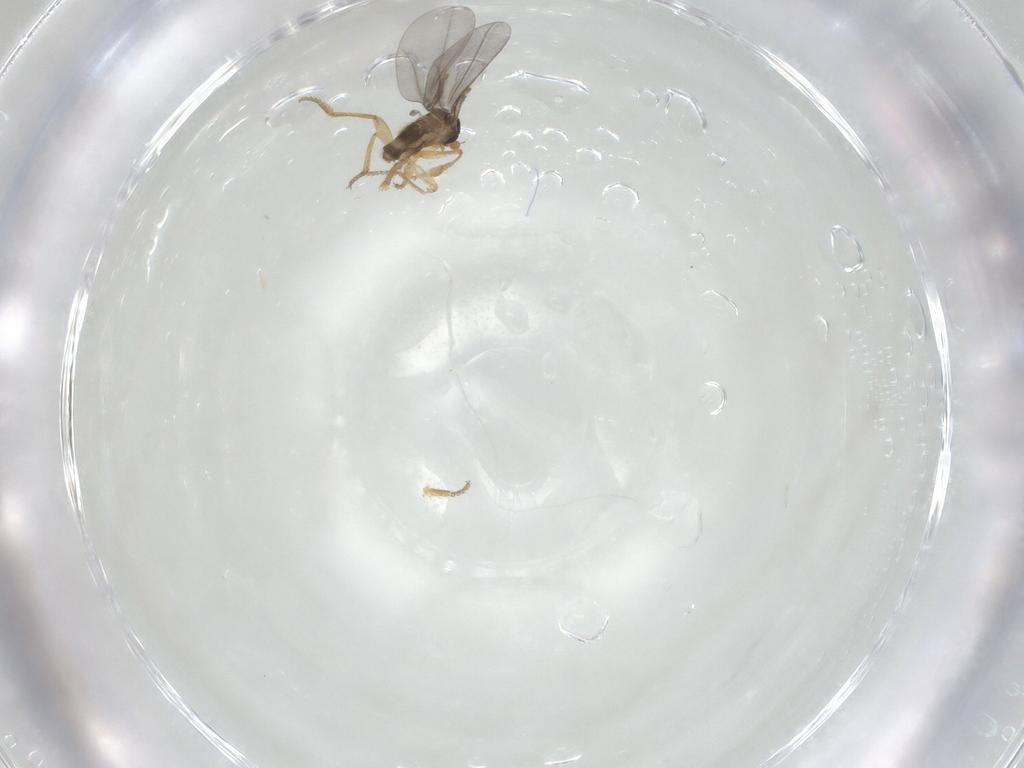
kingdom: Animalia
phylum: Arthropoda
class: Insecta
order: Diptera
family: Phoridae
